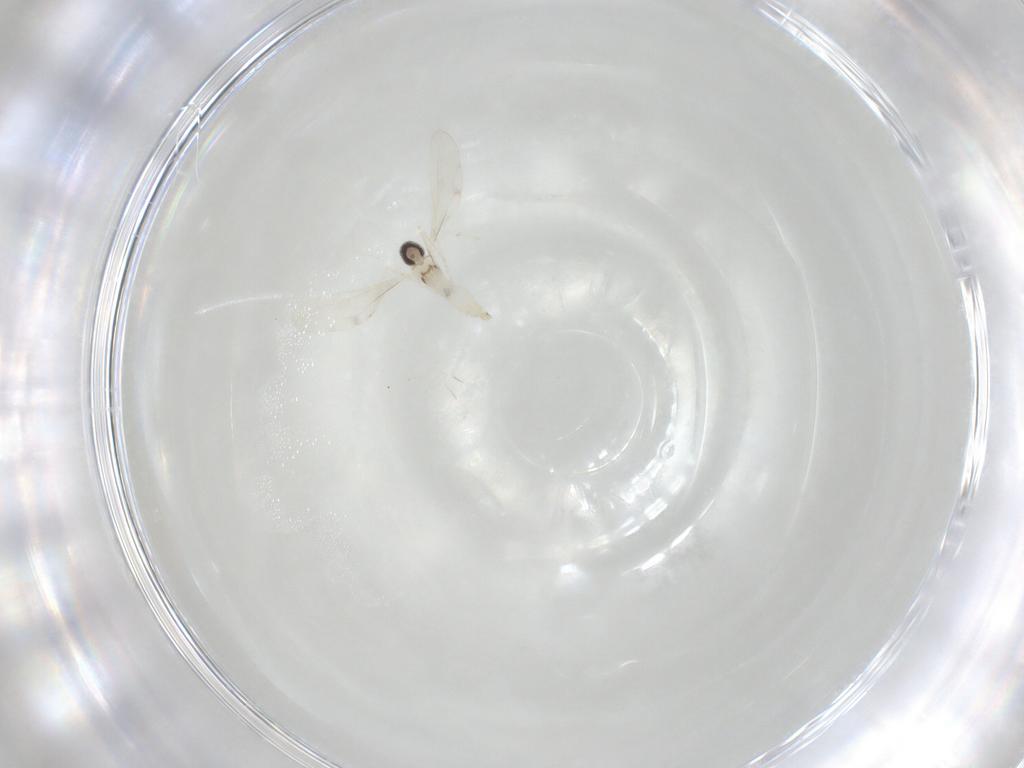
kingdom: Animalia
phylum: Arthropoda
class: Insecta
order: Diptera
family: Cecidomyiidae
